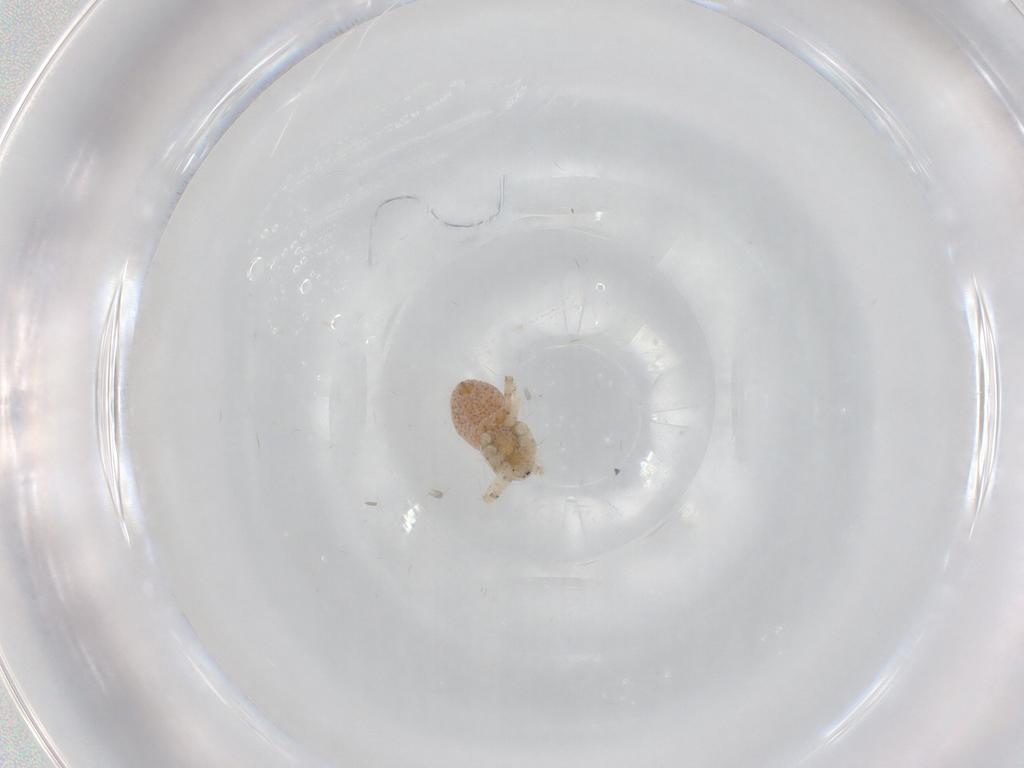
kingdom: Animalia
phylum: Arthropoda
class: Arachnida
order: Araneae
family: Philodromidae
